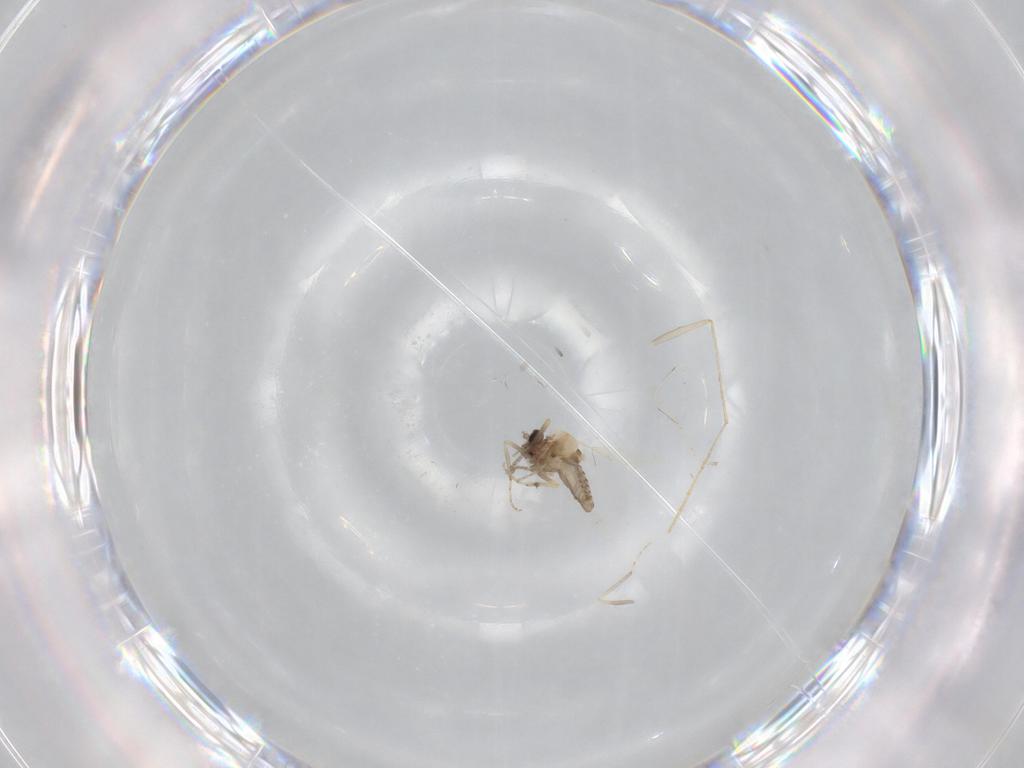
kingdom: Animalia
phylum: Arthropoda
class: Insecta
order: Diptera
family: Ceratopogonidae
